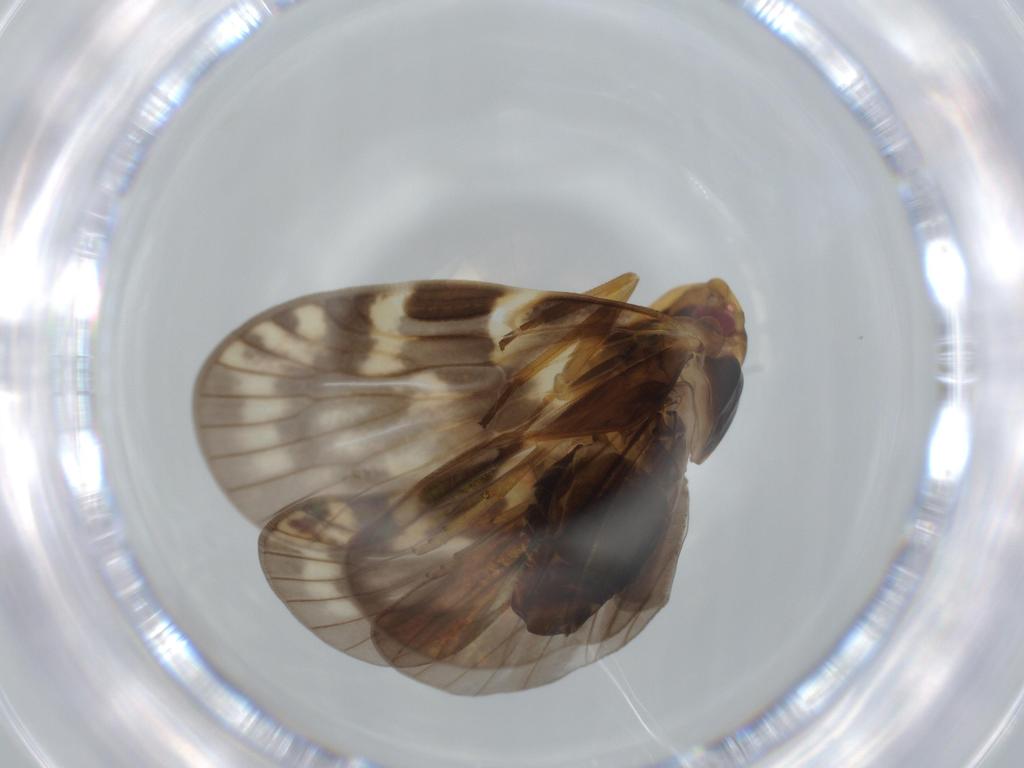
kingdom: Animalia
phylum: Arthropoda
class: Insecta
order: Hemiptera
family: Cixiidae
